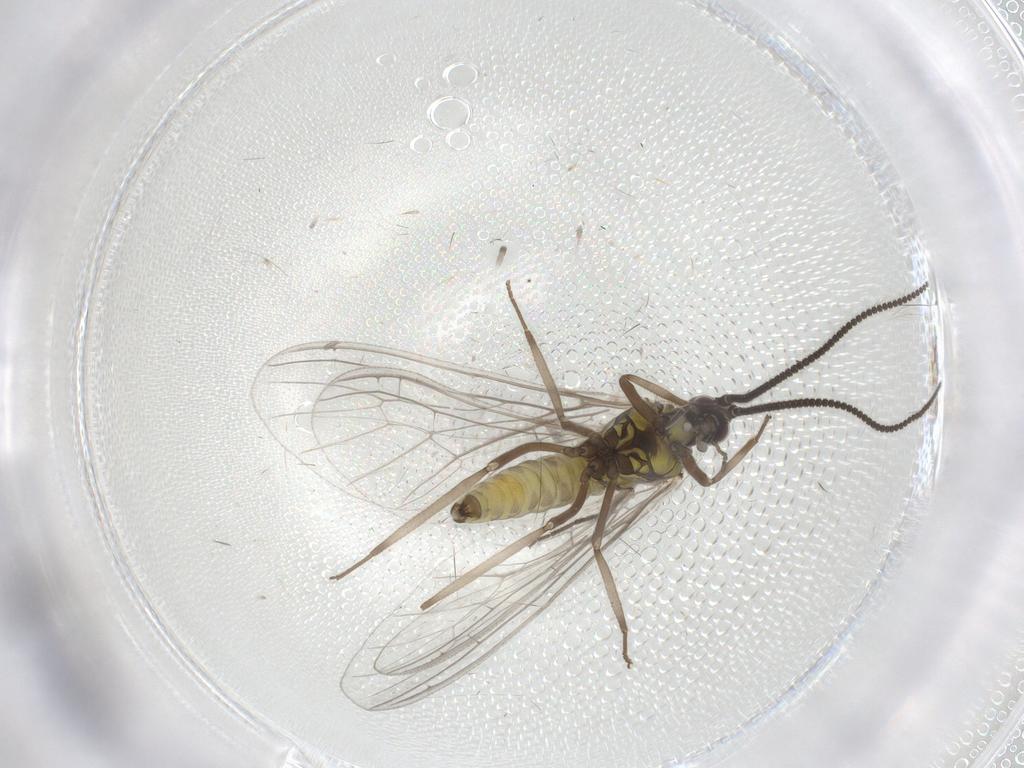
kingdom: Animalia
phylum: Arthropoda
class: Insecta
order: Neuroptera
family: Coniopterygidae
